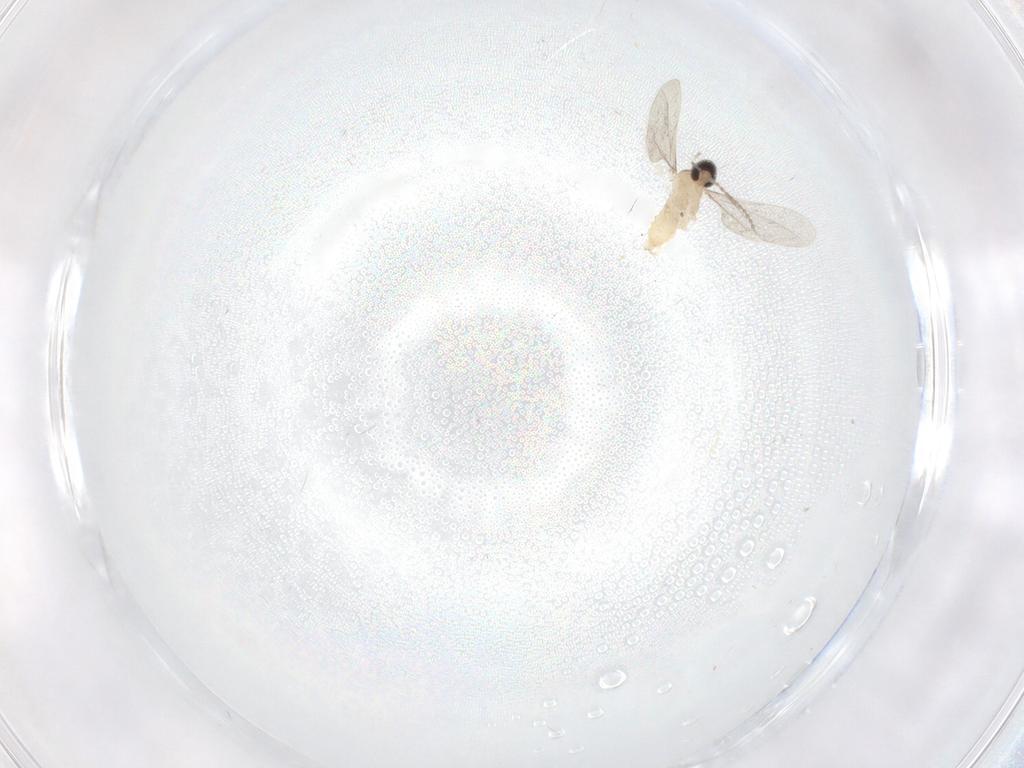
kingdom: Animalia
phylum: Arthropoda
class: Insecta
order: Diptera
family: Cecidomyiidae
